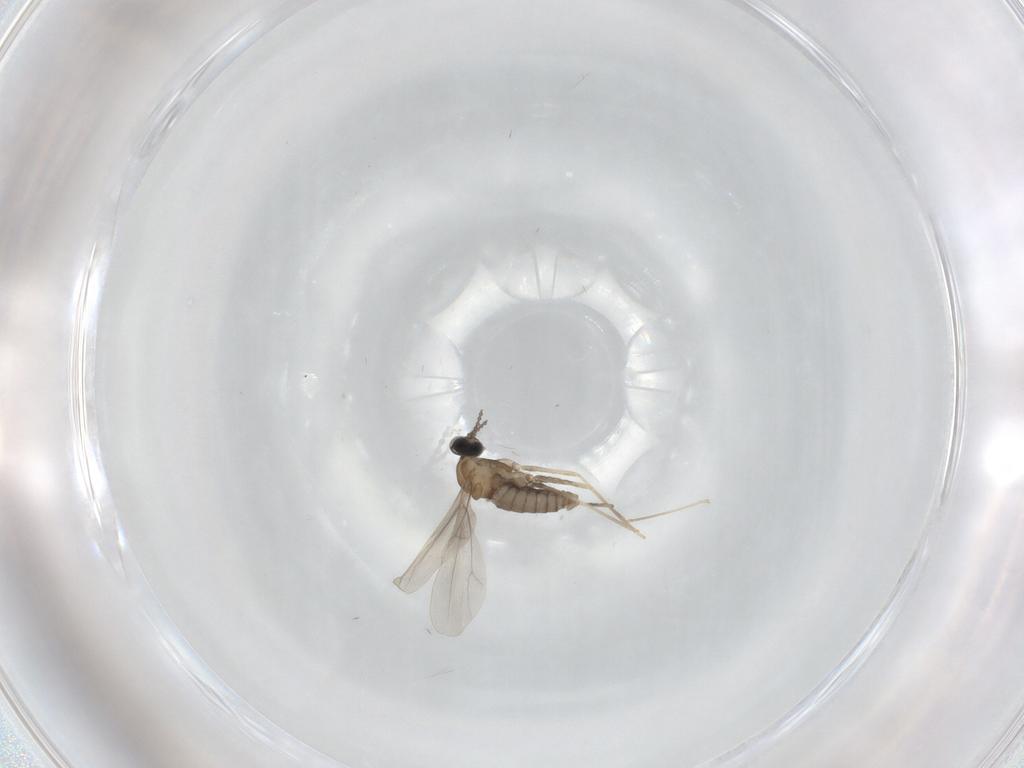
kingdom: Animalia
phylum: Arthropoda
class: Insecta
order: Diptera
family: Cecidomyiidae
